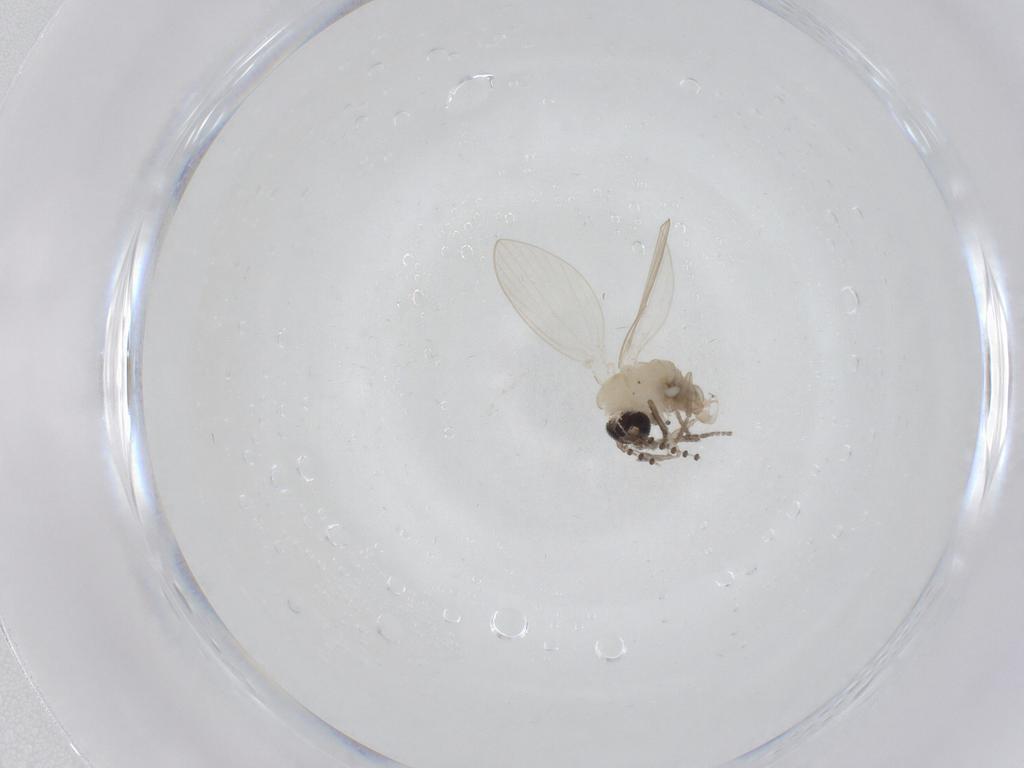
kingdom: Animalia
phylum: Arthropoda
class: Insecta
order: Diptera
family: Psychodidae
